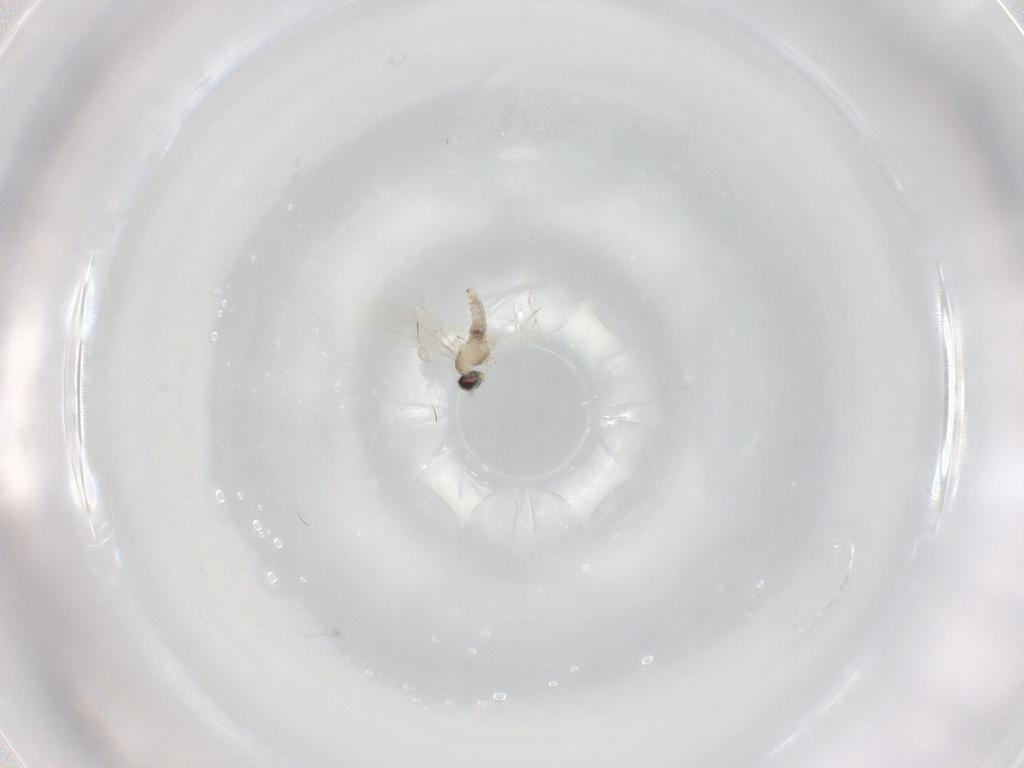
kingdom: Animalia
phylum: Arthropoda
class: Insecta
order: Diptera
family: Cecidomyiidae
